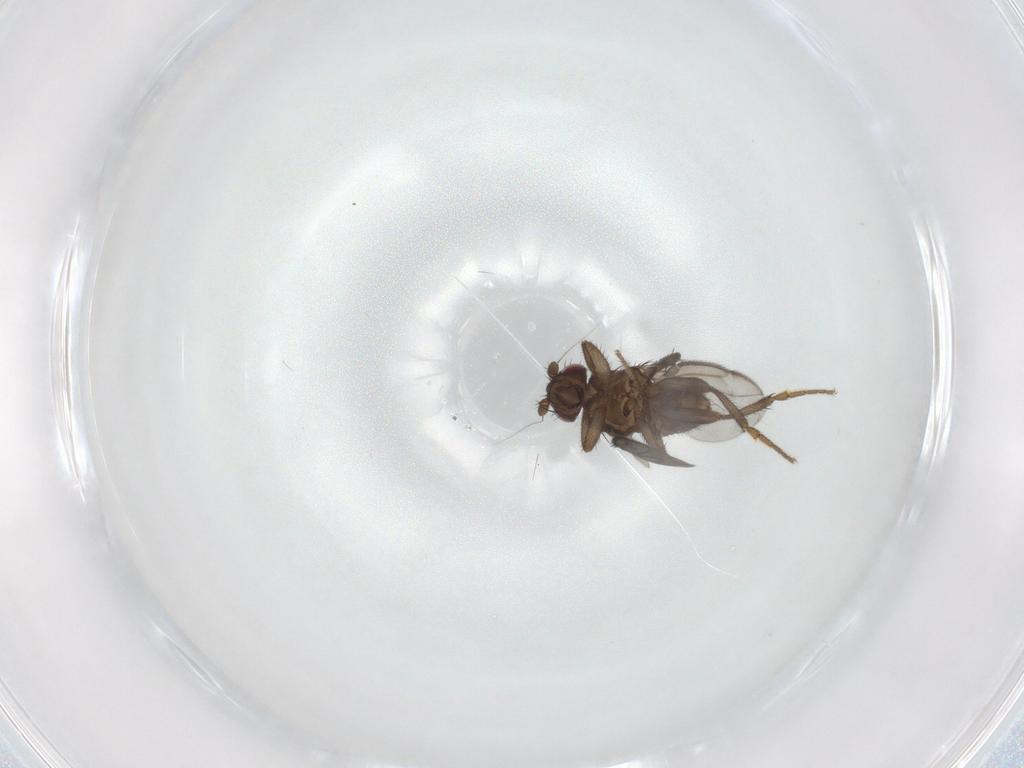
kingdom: Animalia
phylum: Arthropoda
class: Insecta
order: Diptera
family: Sphaeroceridae
